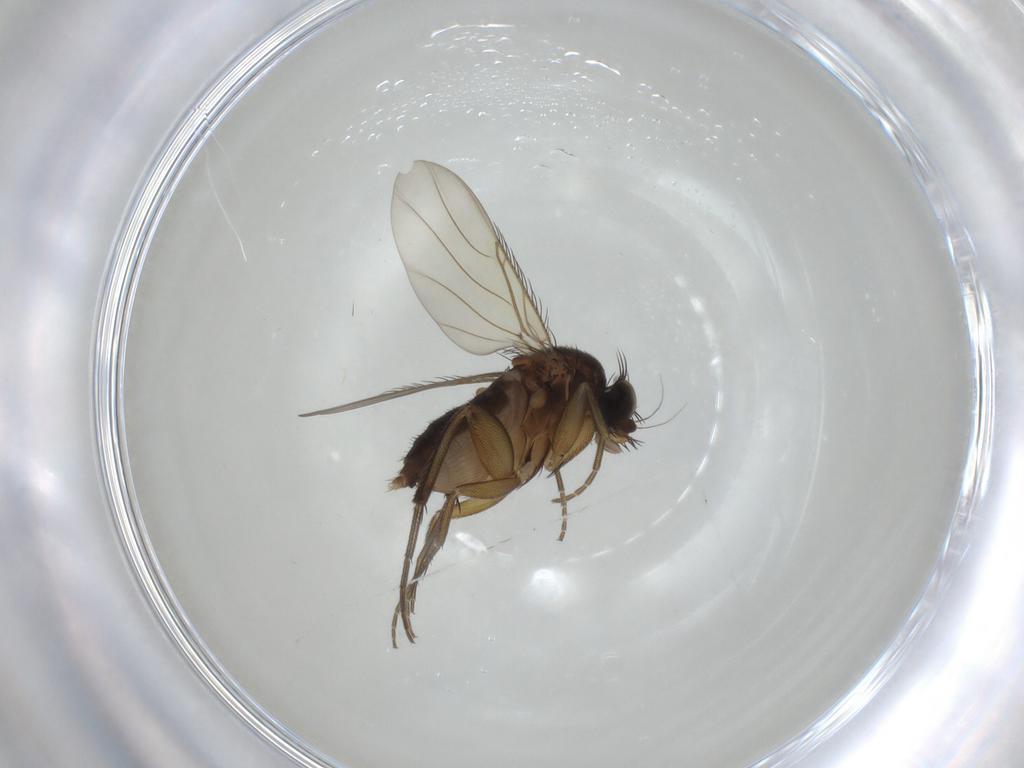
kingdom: Animalia
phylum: Arthropoda
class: Insecta
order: Diptera
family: Phoridae
